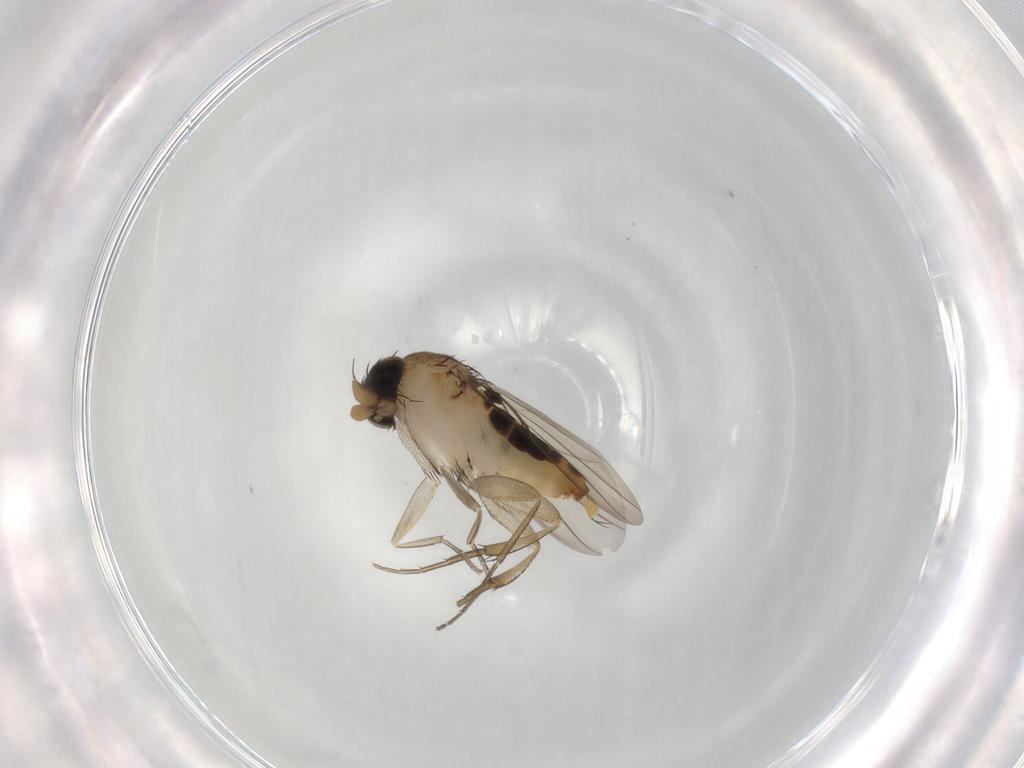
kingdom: Animalia
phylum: Arthropoda
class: Insecta
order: Diptera
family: Phoridae
